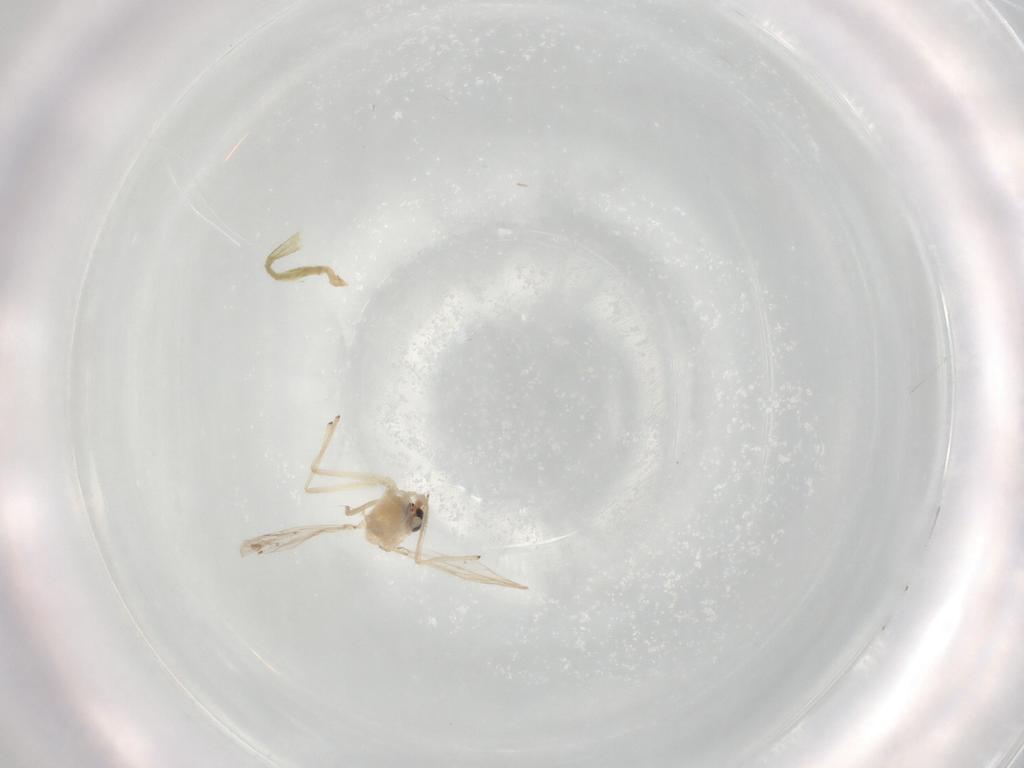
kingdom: Animalia
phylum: Arthropoda
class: Insecta
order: Diptera
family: Chironomidae
